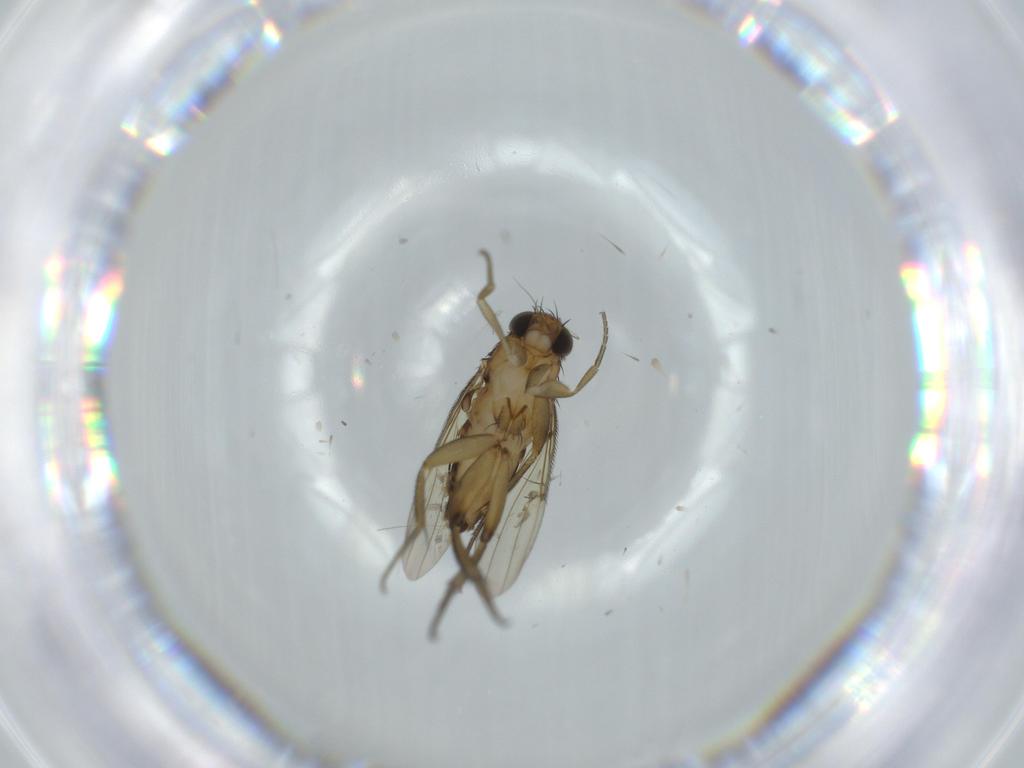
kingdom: Animalia
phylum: Arthropoda
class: Insecta
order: Diptera
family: Phoridae
